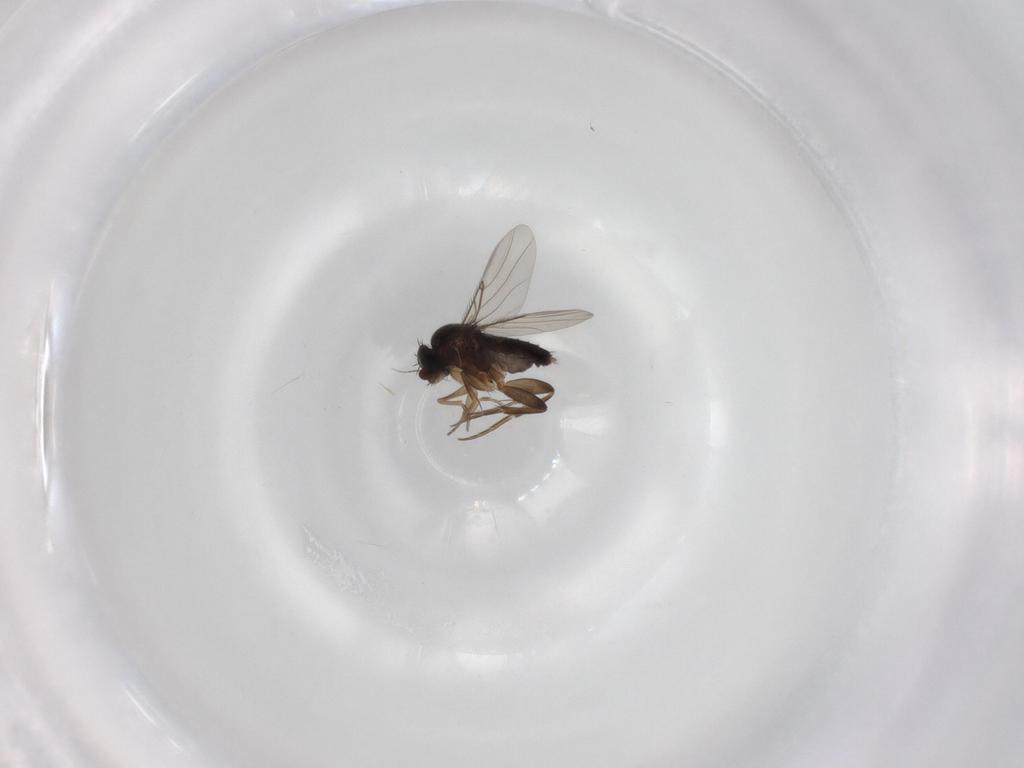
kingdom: Animalia
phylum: Arthropoda
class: Insecta
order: Diptera
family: Phoridae
